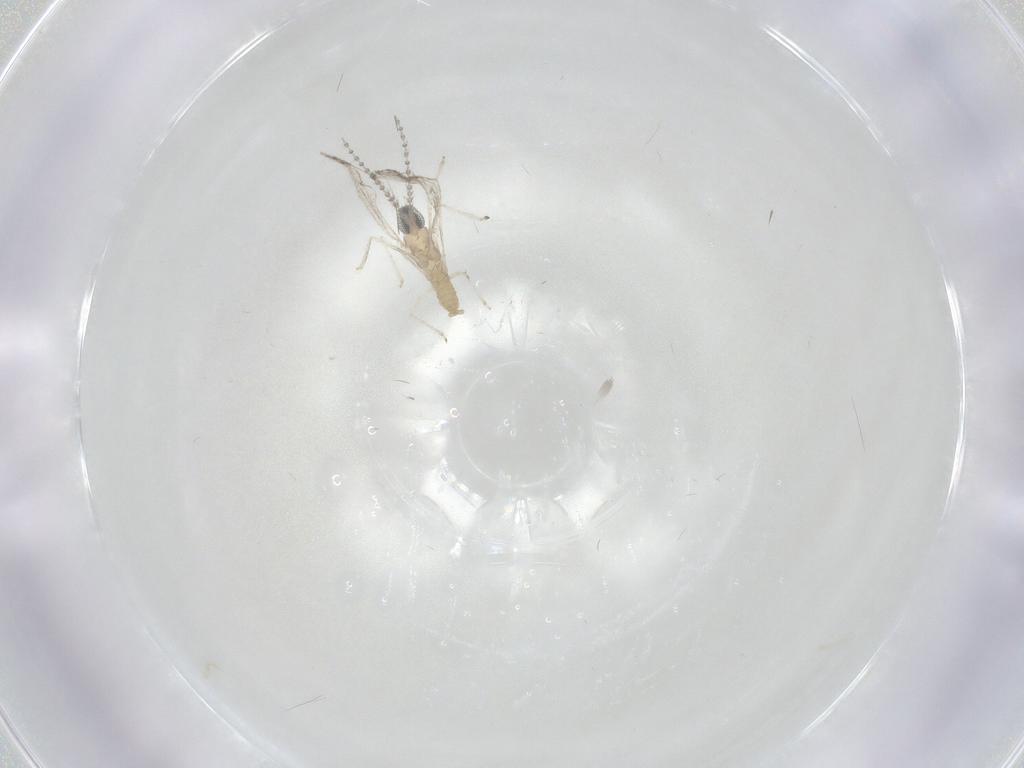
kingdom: Animalia
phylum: Arthropoda
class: Insecta
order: Diptera
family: Cecidomyiidae
